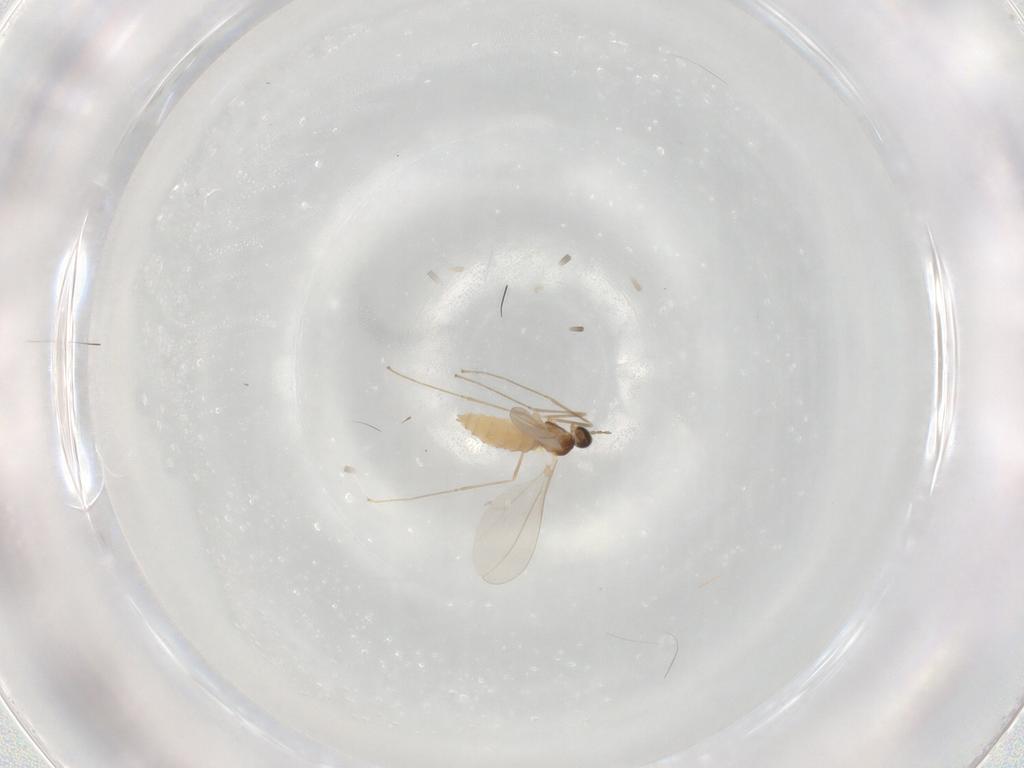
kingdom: Animalia
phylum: Arthropoda
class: Insecta
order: Diptera
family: Cecidomyiidae
